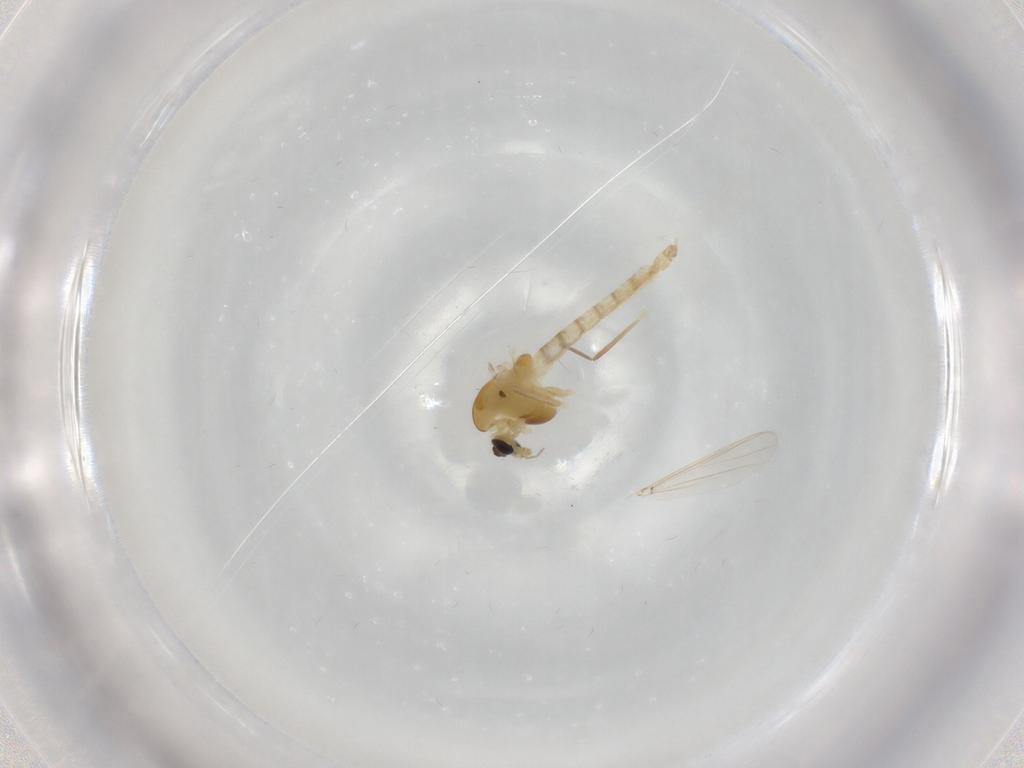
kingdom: Animalia
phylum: Arthropoda
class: Insecta
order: Diptera
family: Chironomidae
